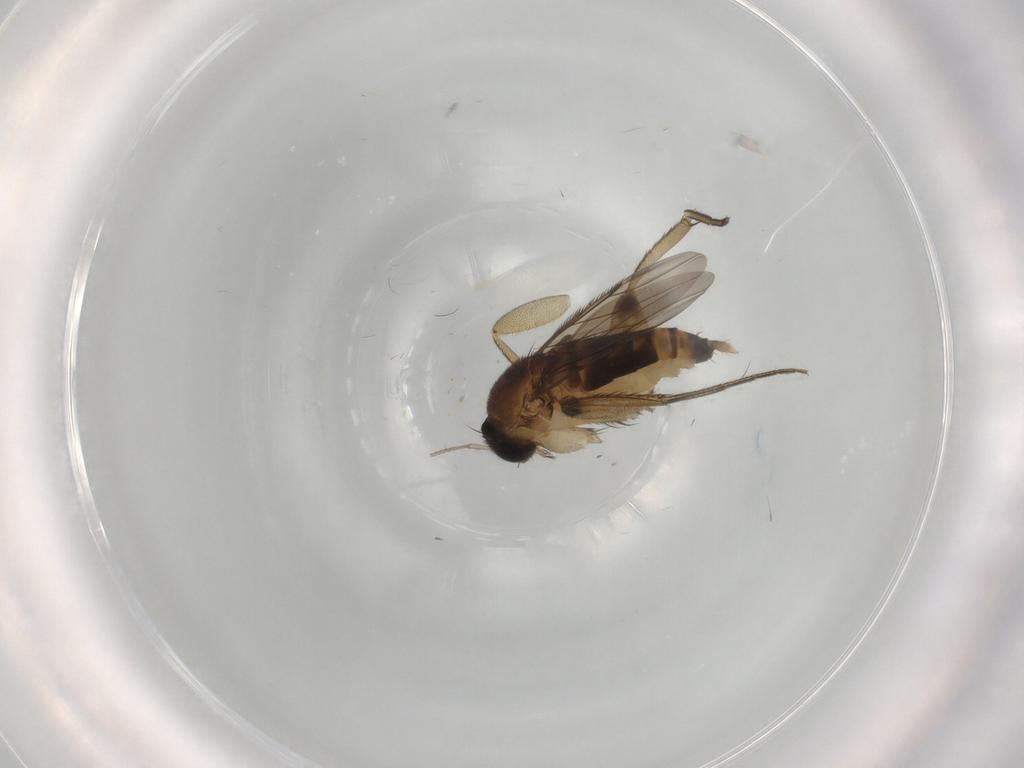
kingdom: Animalia
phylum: Arthropoda
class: Insecta
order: Diptera
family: Phoridae
